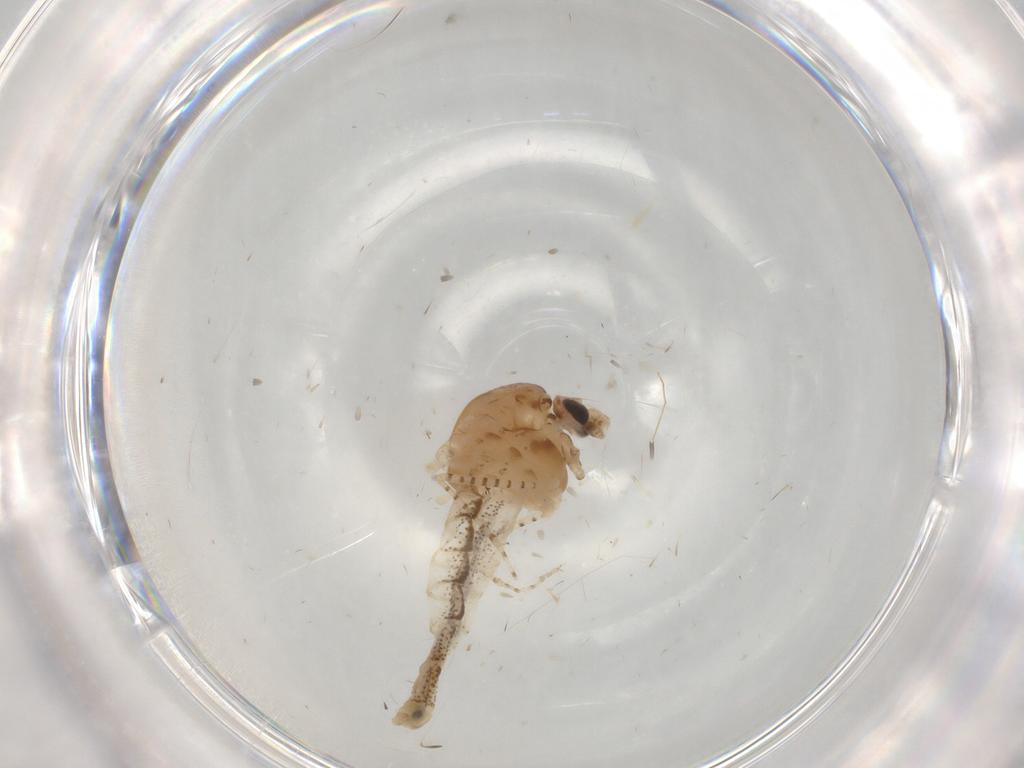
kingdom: Animalia
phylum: Arthropoda
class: Insecta
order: Diptera
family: Chaoboridae
